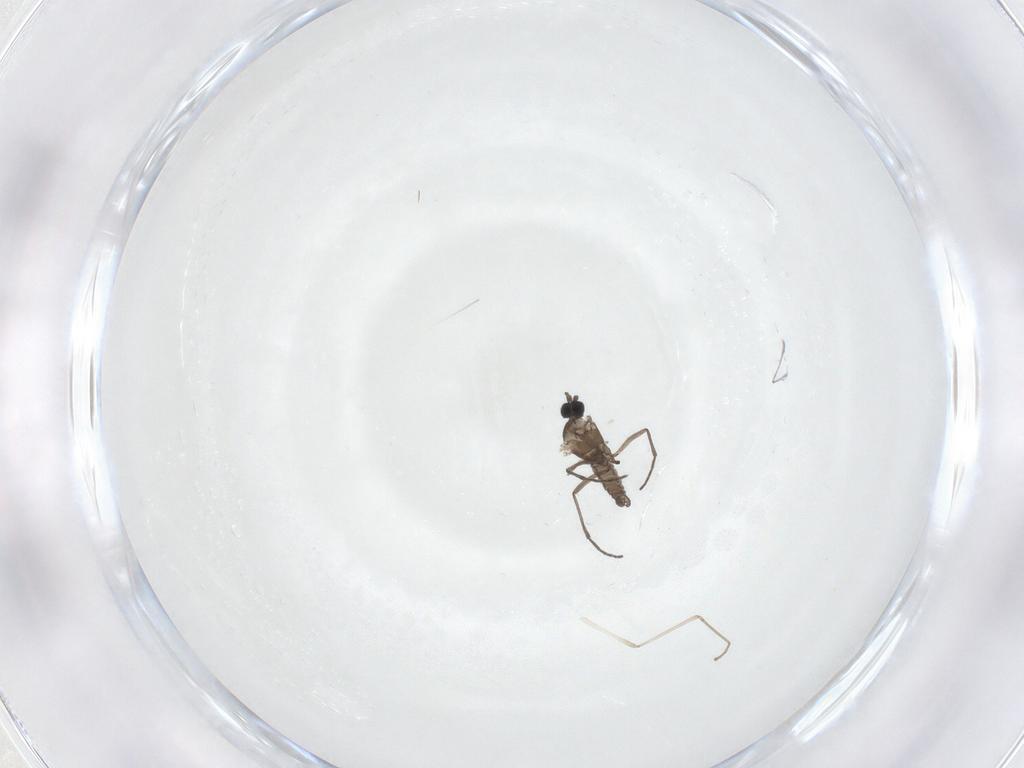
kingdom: Animalia
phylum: Arthropoda
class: Insecta
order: Diptera
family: Sciaridae
